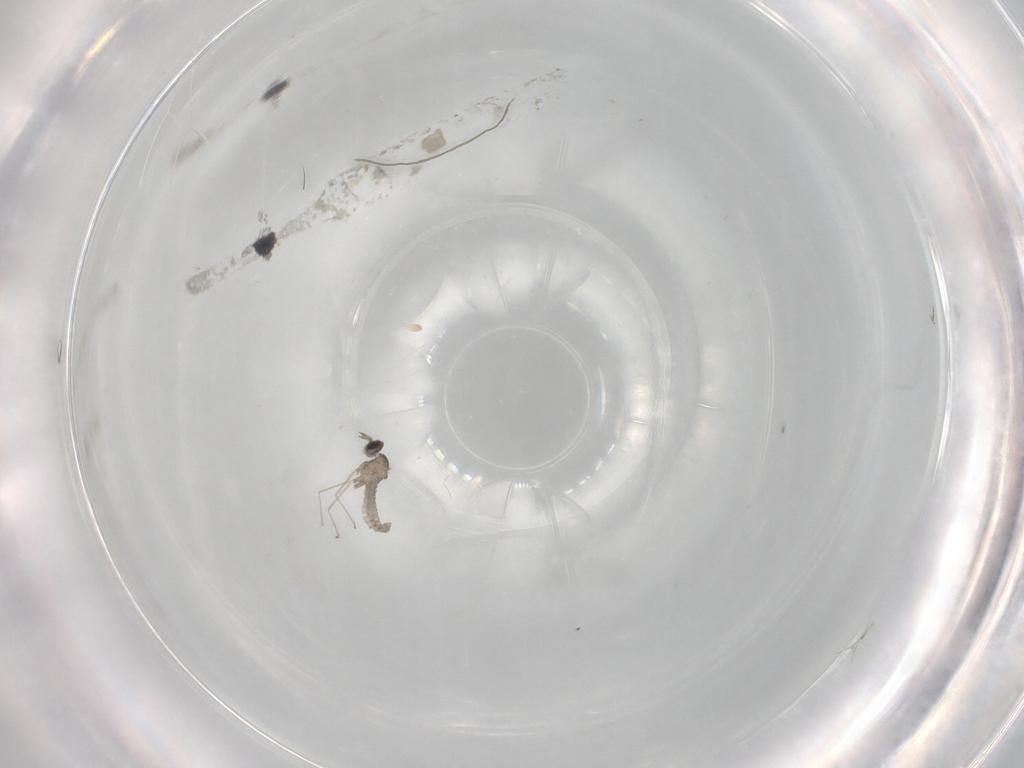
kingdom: Animalia
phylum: Arthropoda
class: Insecta
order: Diptera
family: Cecidomyiidae
